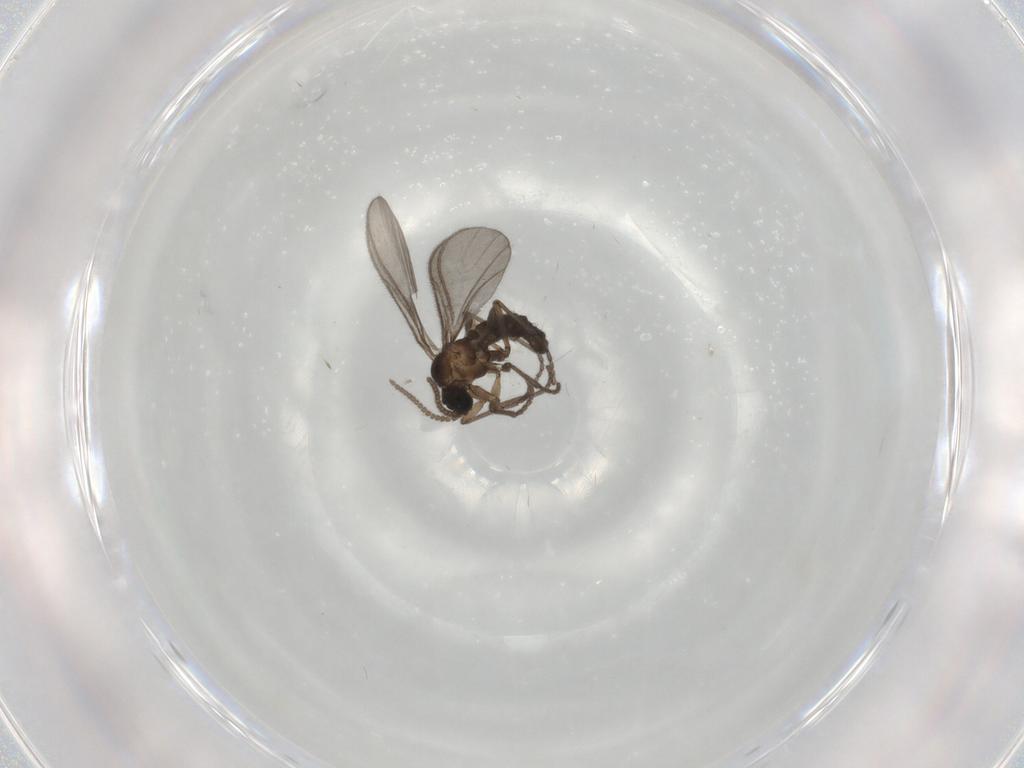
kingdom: Animalia
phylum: Arthropoda
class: Insecta
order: Diptera
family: Sciaridae
